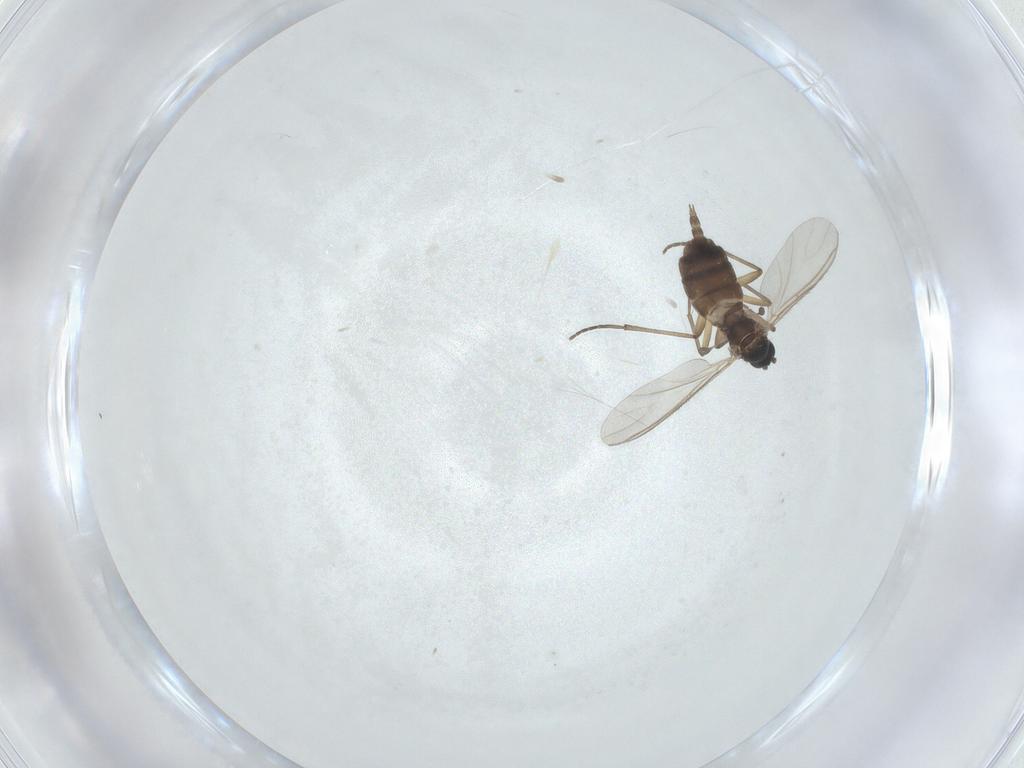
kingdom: Animalia
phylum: Arthropoda
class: Insecta
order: Diptera
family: Sciaridae
